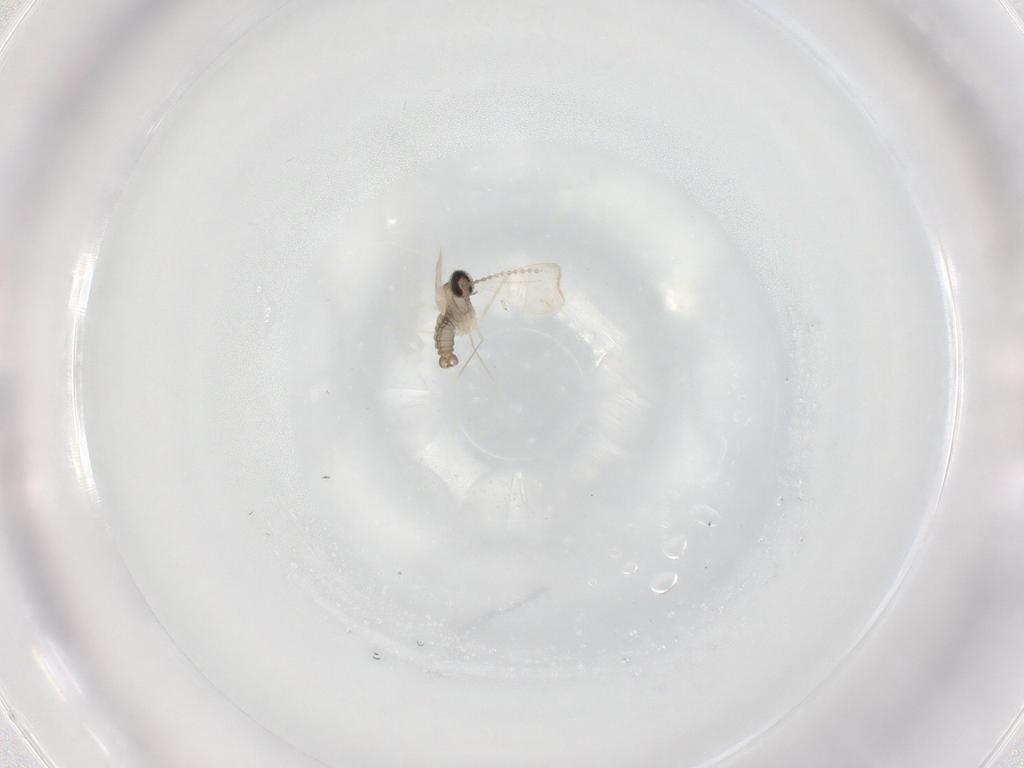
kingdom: Animalia
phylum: Arthropoda
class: Insecta
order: Diptera
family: Cecidomyiidae
